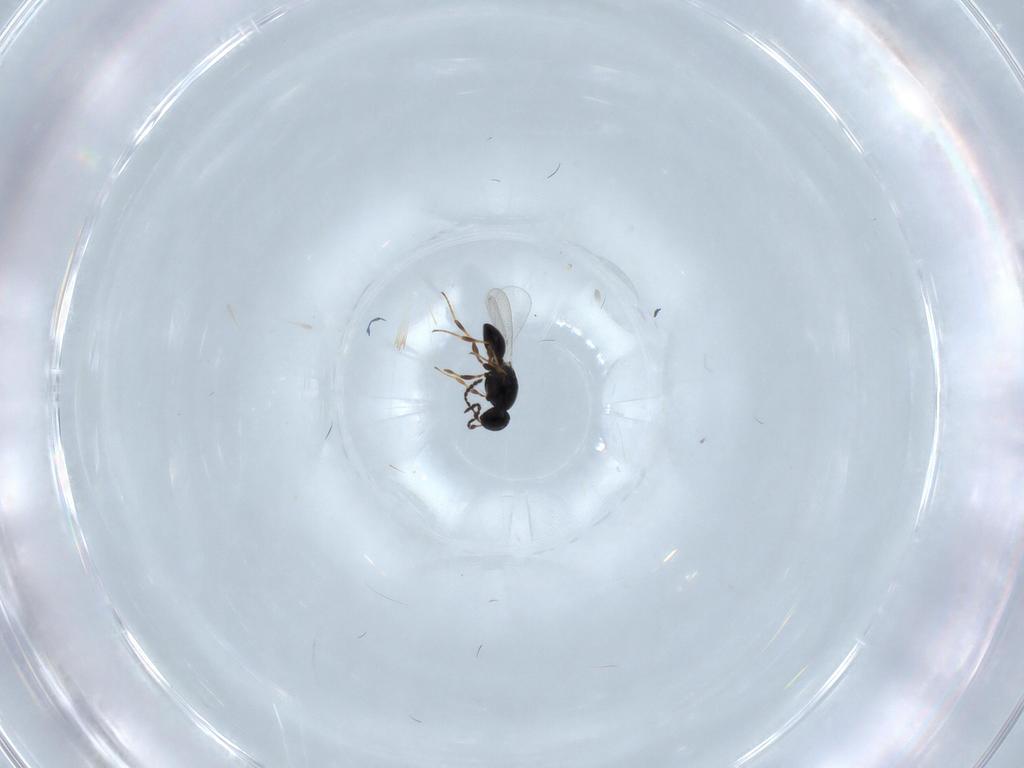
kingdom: Animalia
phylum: Arthropoda
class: Insecta
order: Hymenoptera
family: Platygastridae
